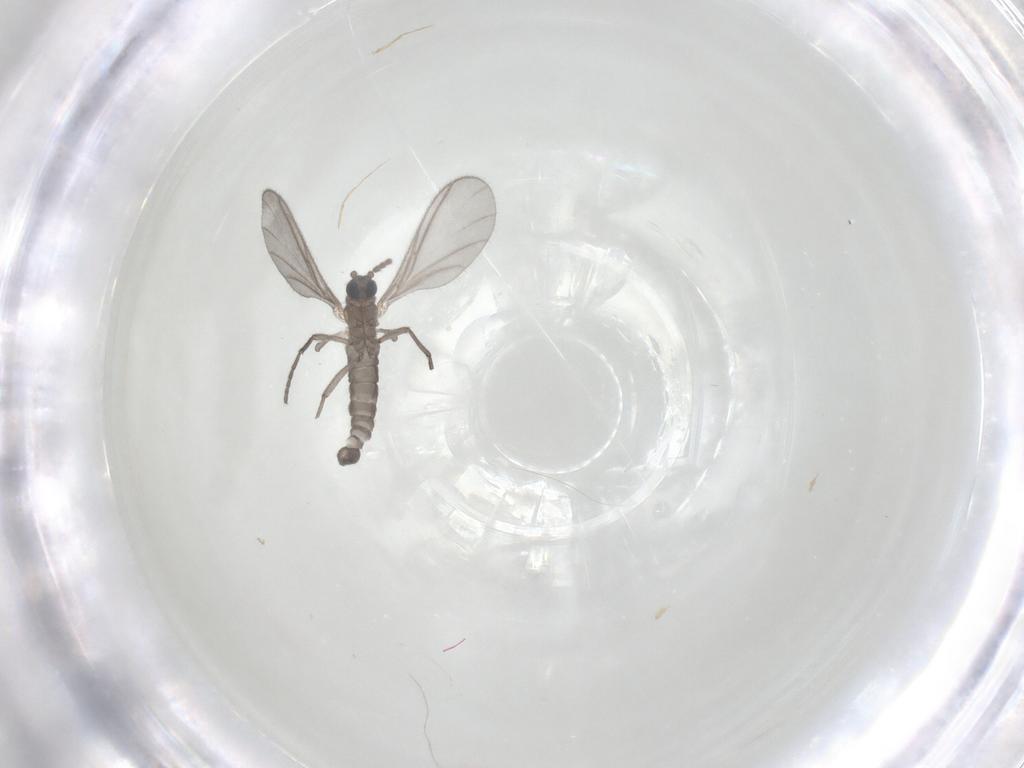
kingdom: Animalia
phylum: Arthropoda
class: Insecta
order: Diptera
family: Sciaridae
